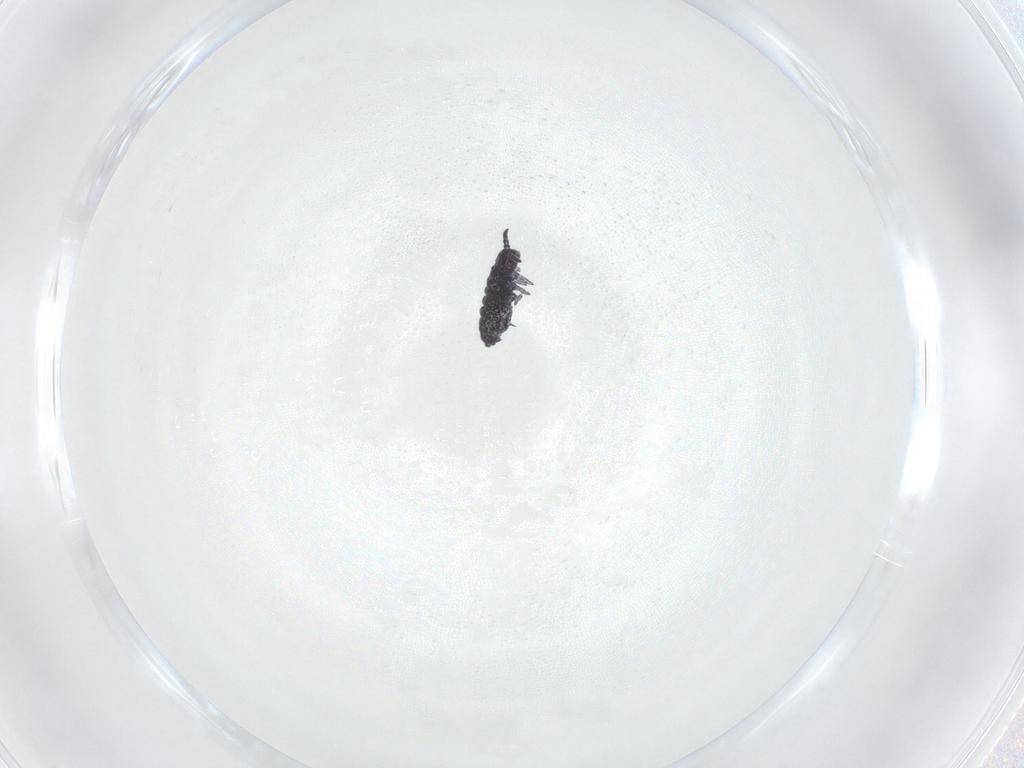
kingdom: Animalia
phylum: Arthropoda
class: Collembola
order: Poduromorpha
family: Brachystomellidae
